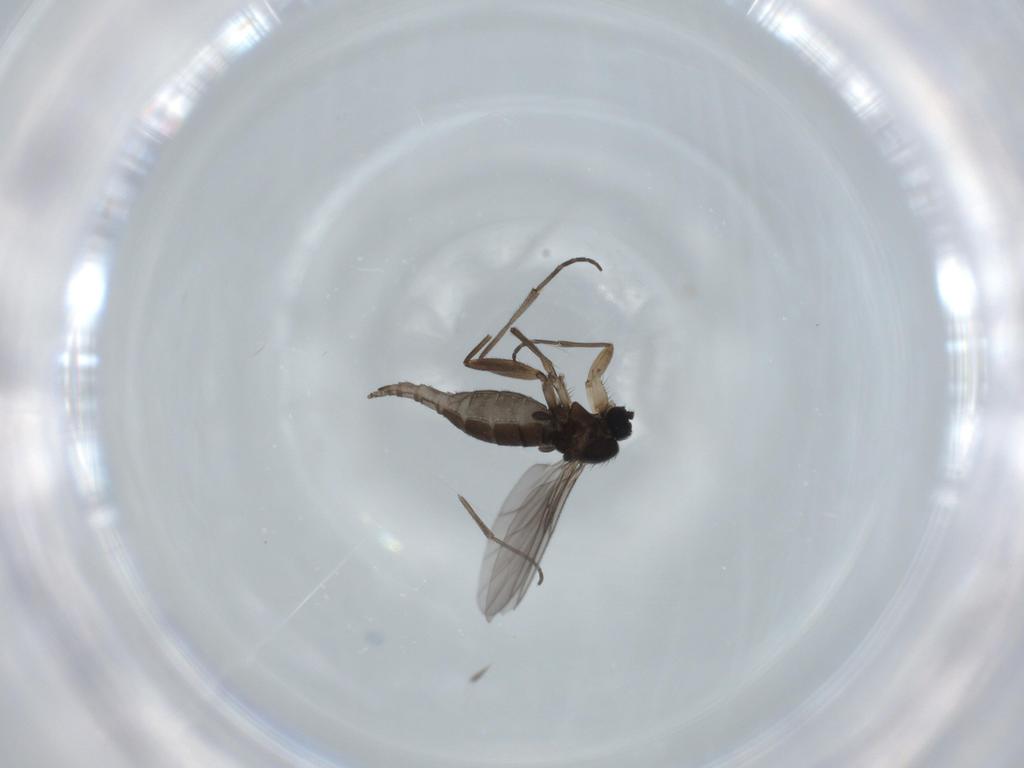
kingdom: Animalia
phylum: Arthropoda
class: Insecta
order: Diptera
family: Sciaridae
